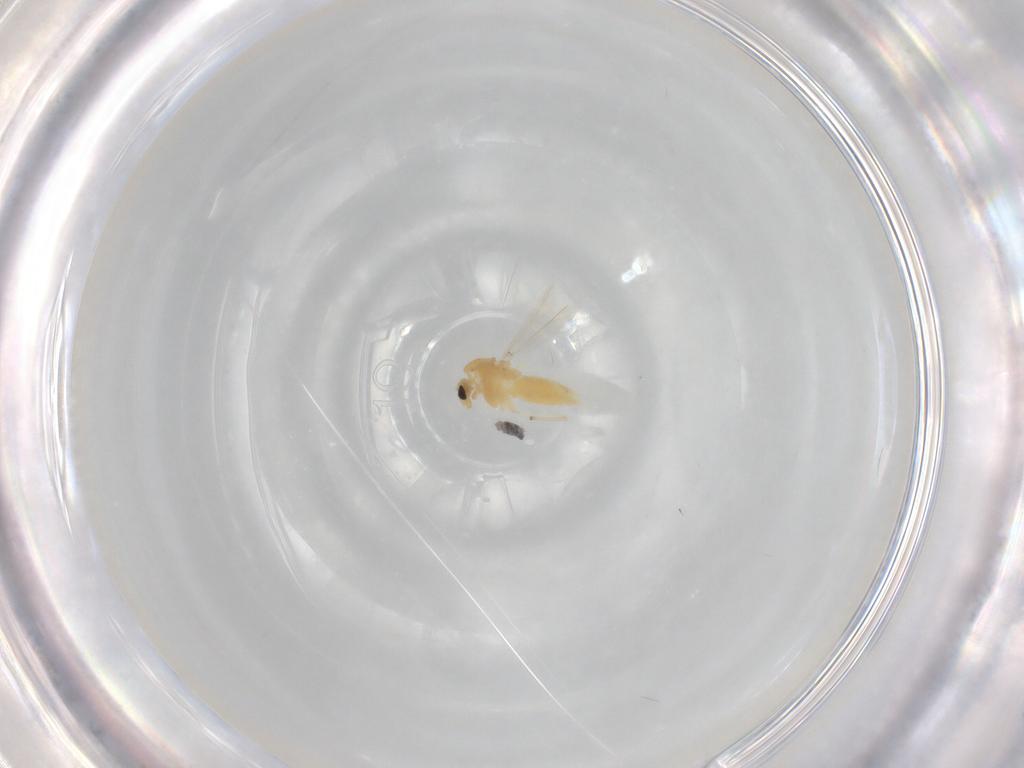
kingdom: Animalia
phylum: Arthropoda
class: Insecta
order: Diptera
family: Chironomidae
